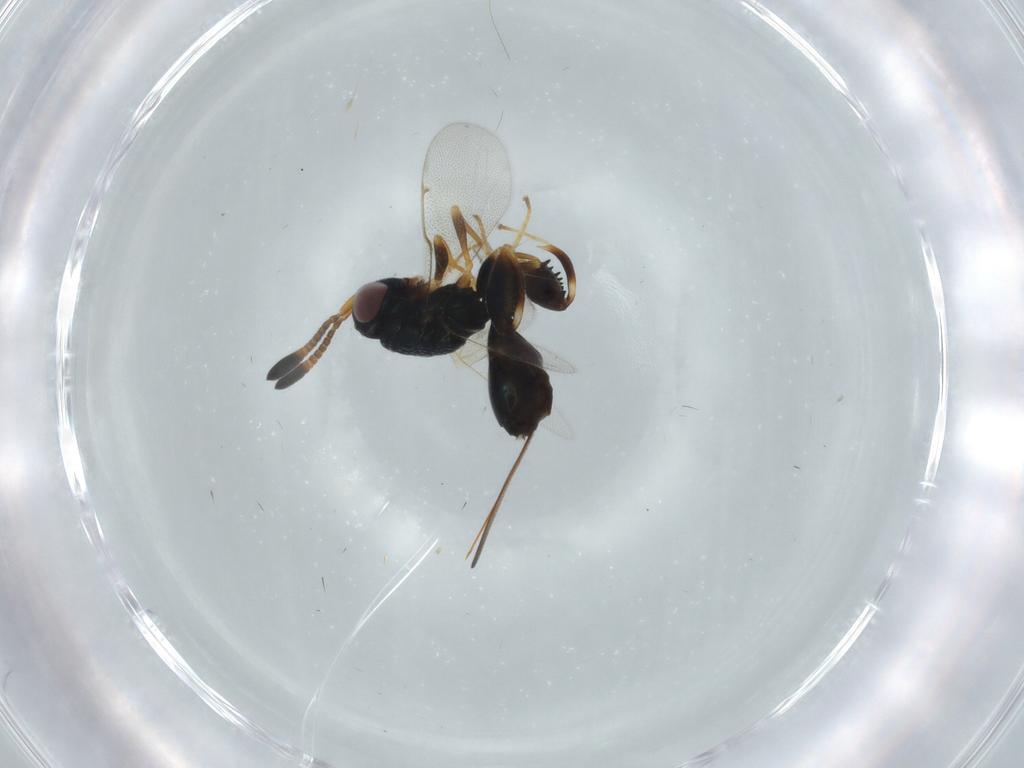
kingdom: Animalia
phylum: Arthropoda
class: Insecta
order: Hymenoptera
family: Torymidae
